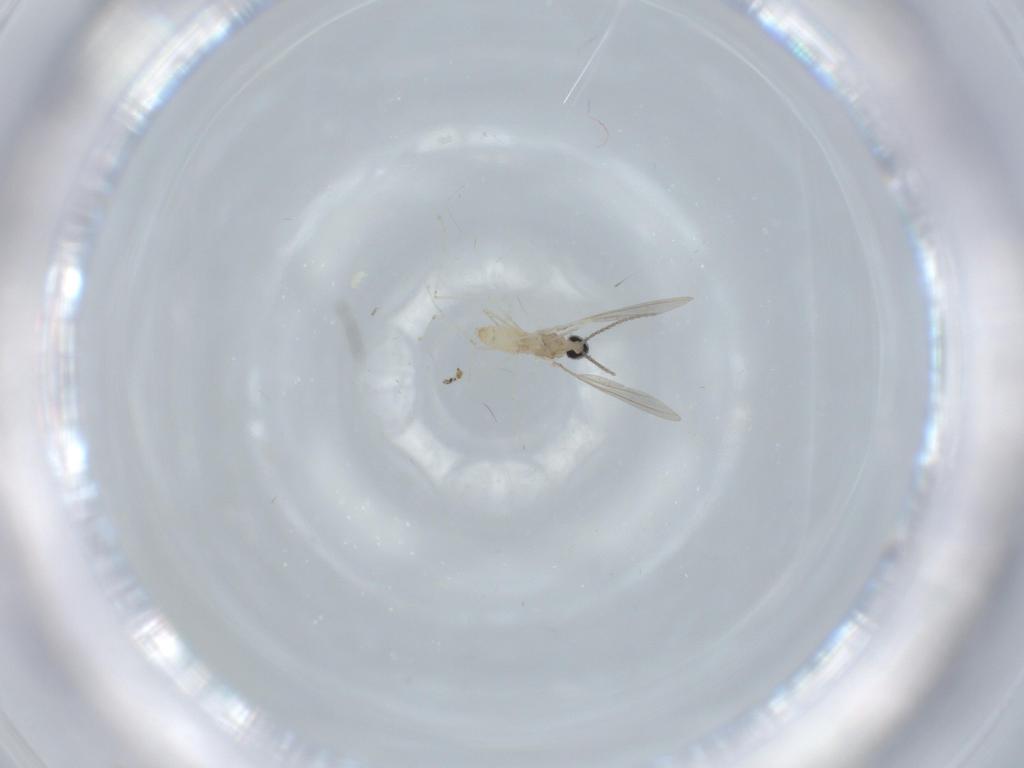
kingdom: Animalia
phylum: Arthropoda
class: Insecta
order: Diptera
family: Cecidomyiidae
